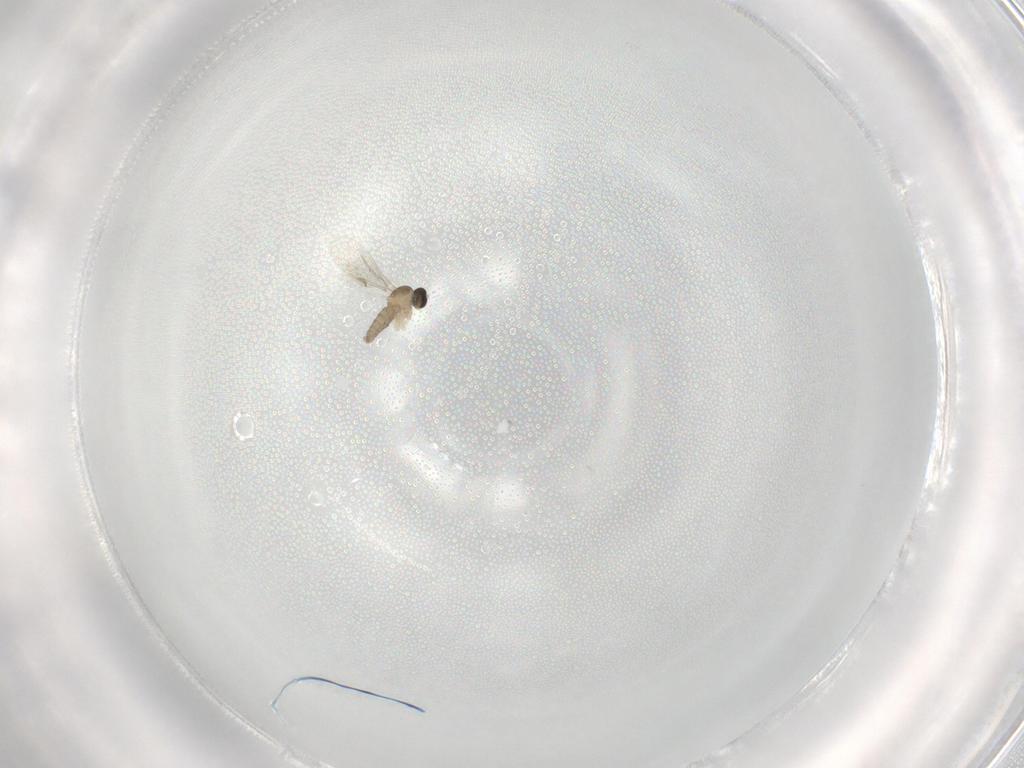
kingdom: Animalia
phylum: Arthropoda
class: Insecta
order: Diptera
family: Cecidomyiidae
